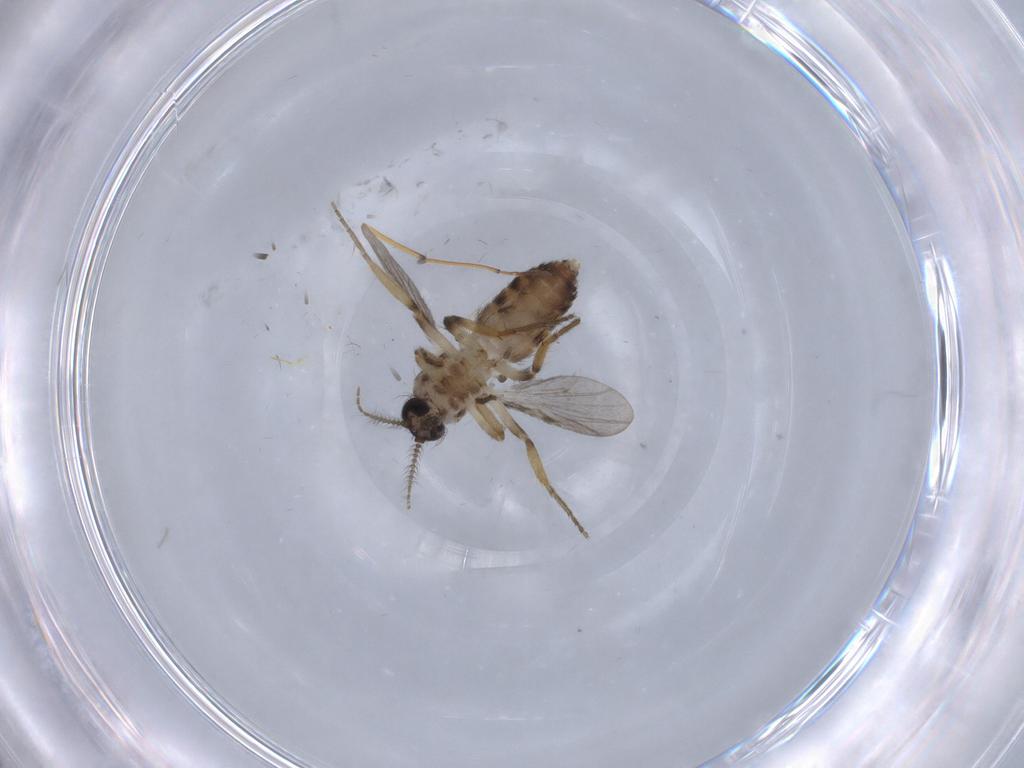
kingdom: Animalia
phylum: Arthropoda
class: Insecta
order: Diptera
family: Ceratopogonidae
